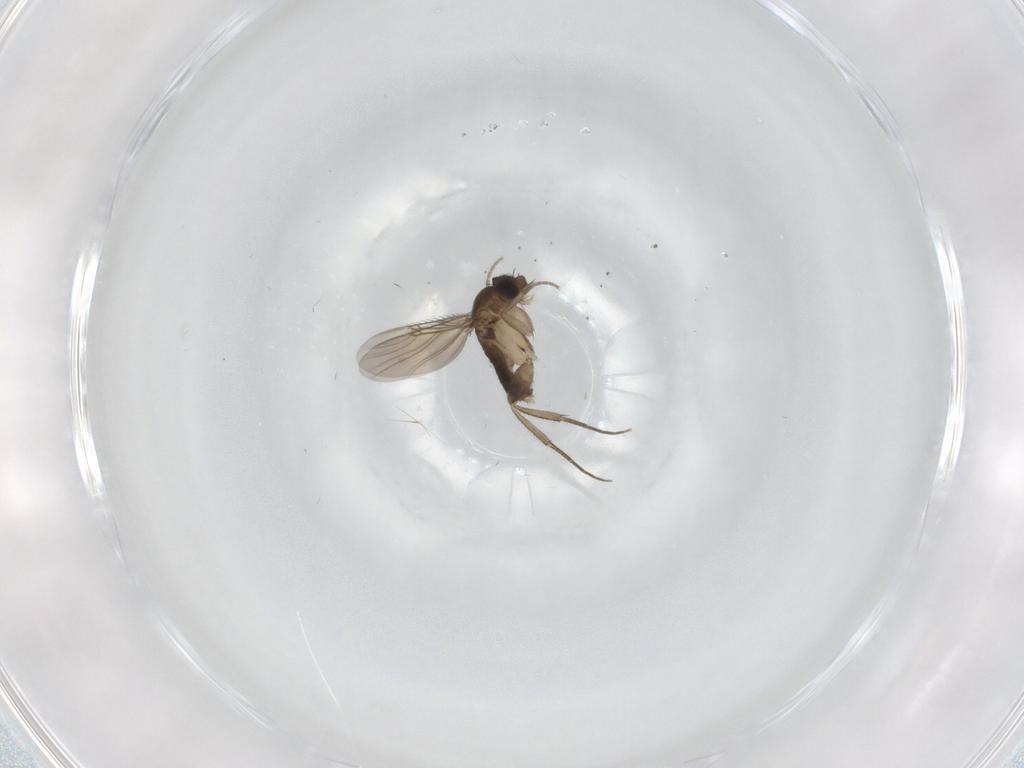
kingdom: Animalia
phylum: Arthropoda
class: Insecta
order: Diptera
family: Phoridae
